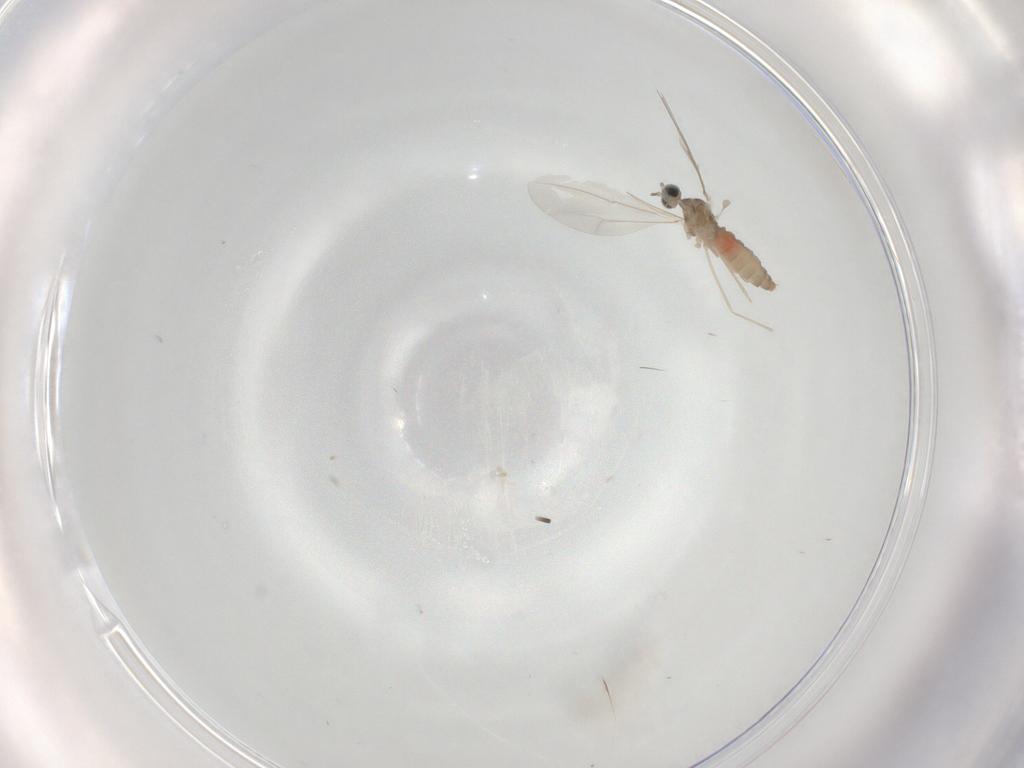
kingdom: Animalia
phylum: Arthropoda
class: Insecta
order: Diptera
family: Cecidomyiidae
